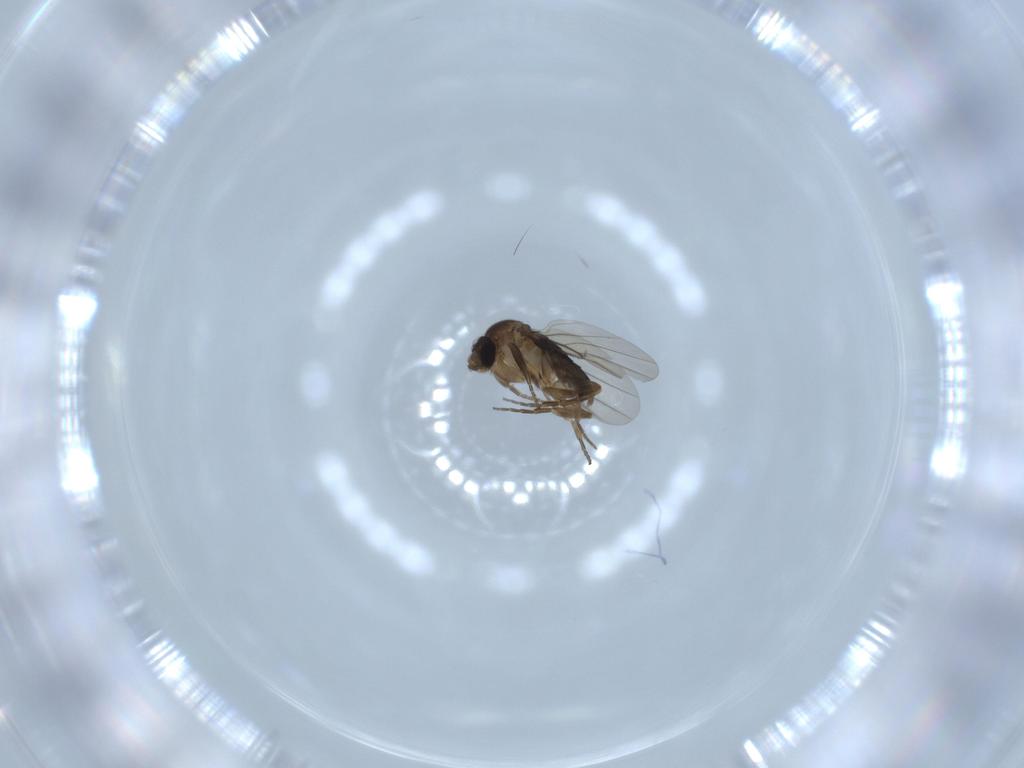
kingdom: Animalia
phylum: Arthropoda
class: Insecta
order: Diptera
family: Phoridae
